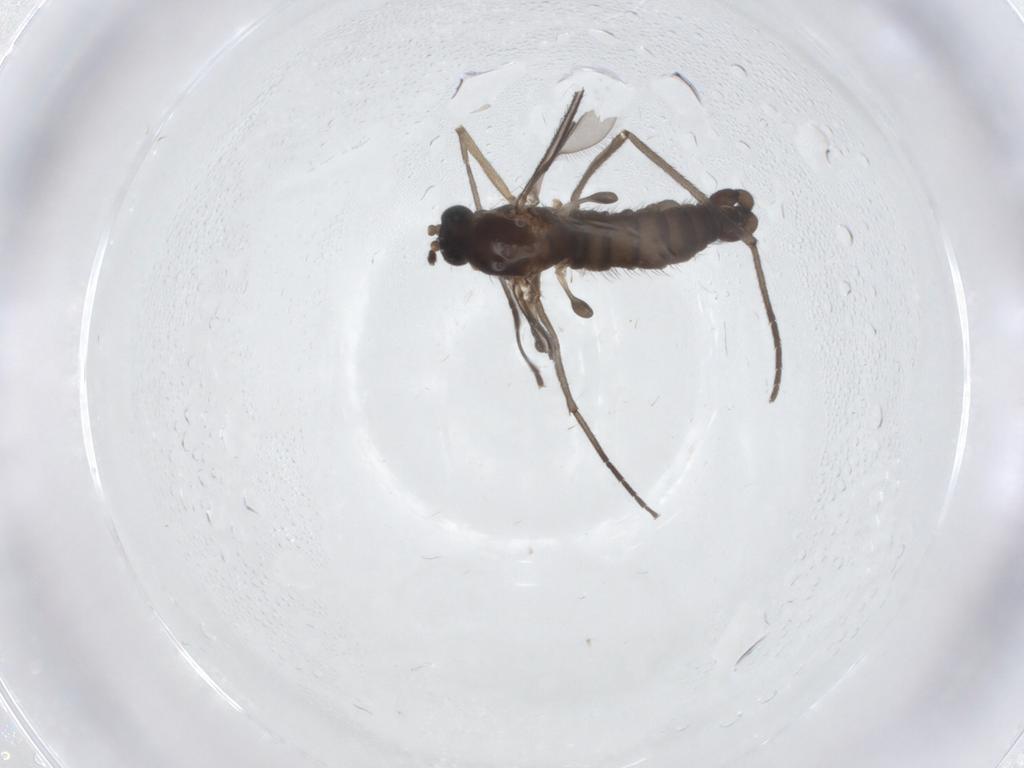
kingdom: Animalia
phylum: Arthropoda
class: Insecta
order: Diptera
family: Sciaridae
